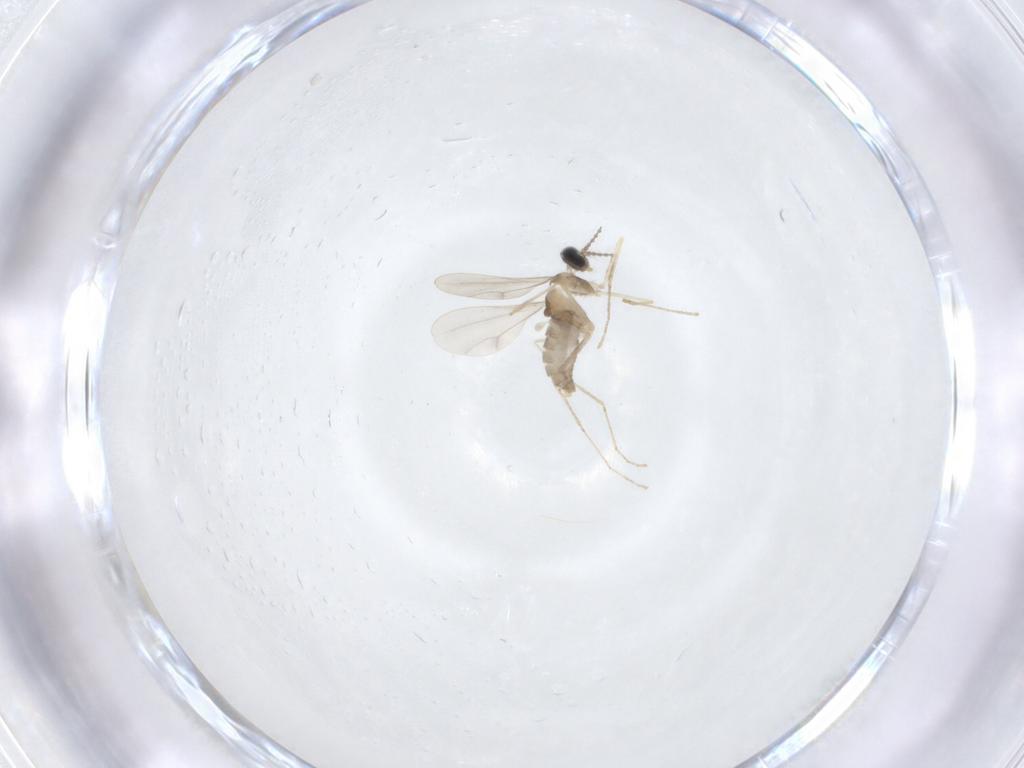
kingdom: Animalia
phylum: Arthropoda
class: Insecta
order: Diptera
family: Cecidomyiidae
